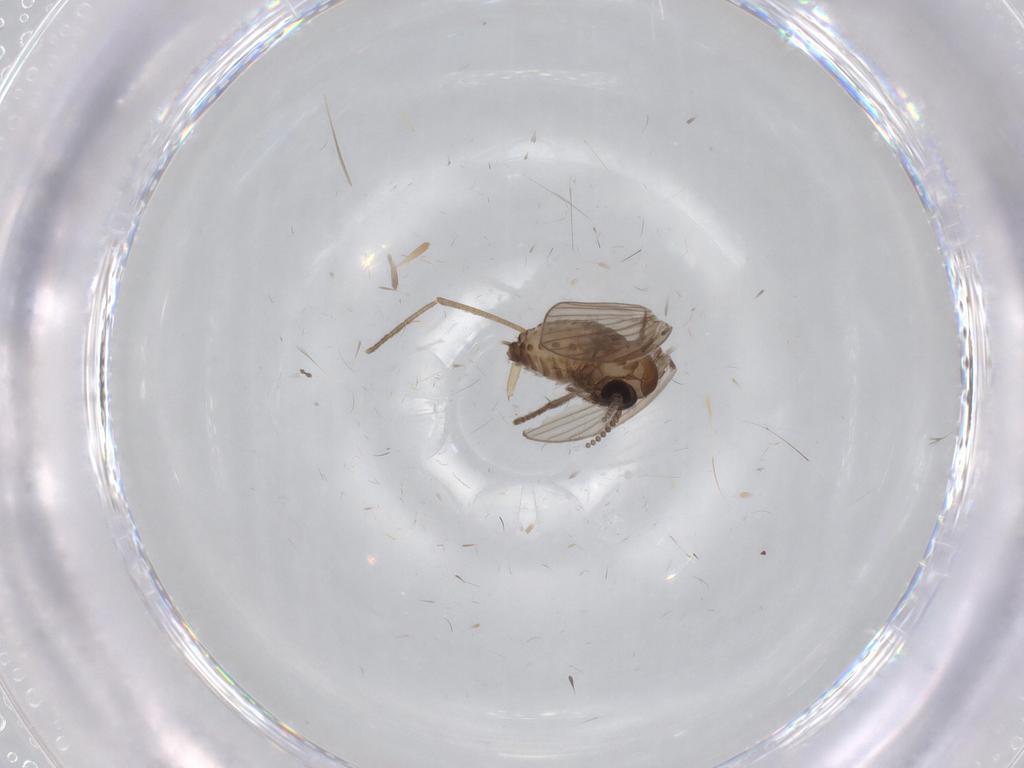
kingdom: Animalia
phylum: Arthropoda
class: Insecta
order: Diptera
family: Psychodidae
